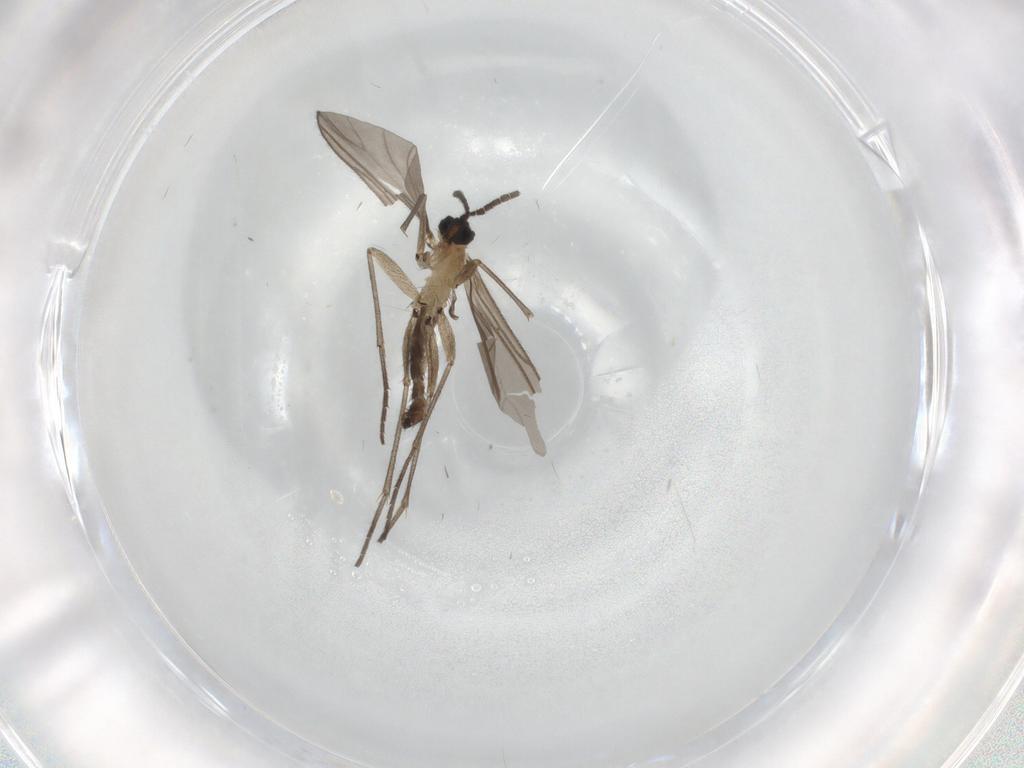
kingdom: Animalia
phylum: Arthropoda
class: Insecta
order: Diptera
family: Sciaridae
